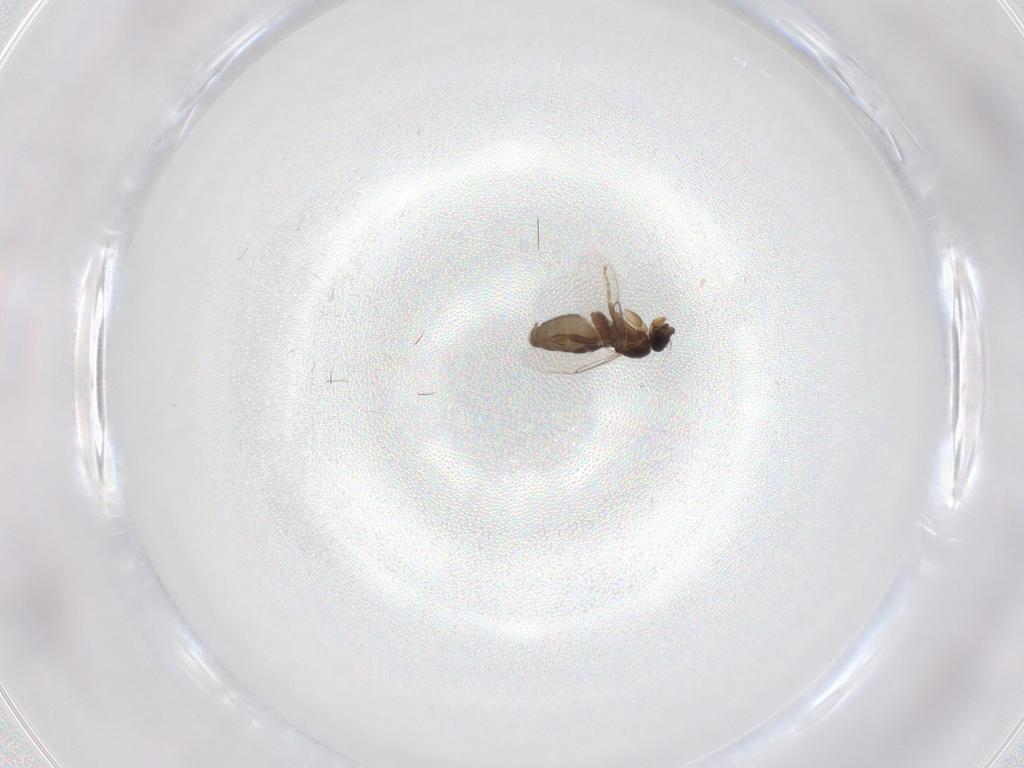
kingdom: Animalia
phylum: Arthropoda
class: Insecta
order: Diptera
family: Phoridae
